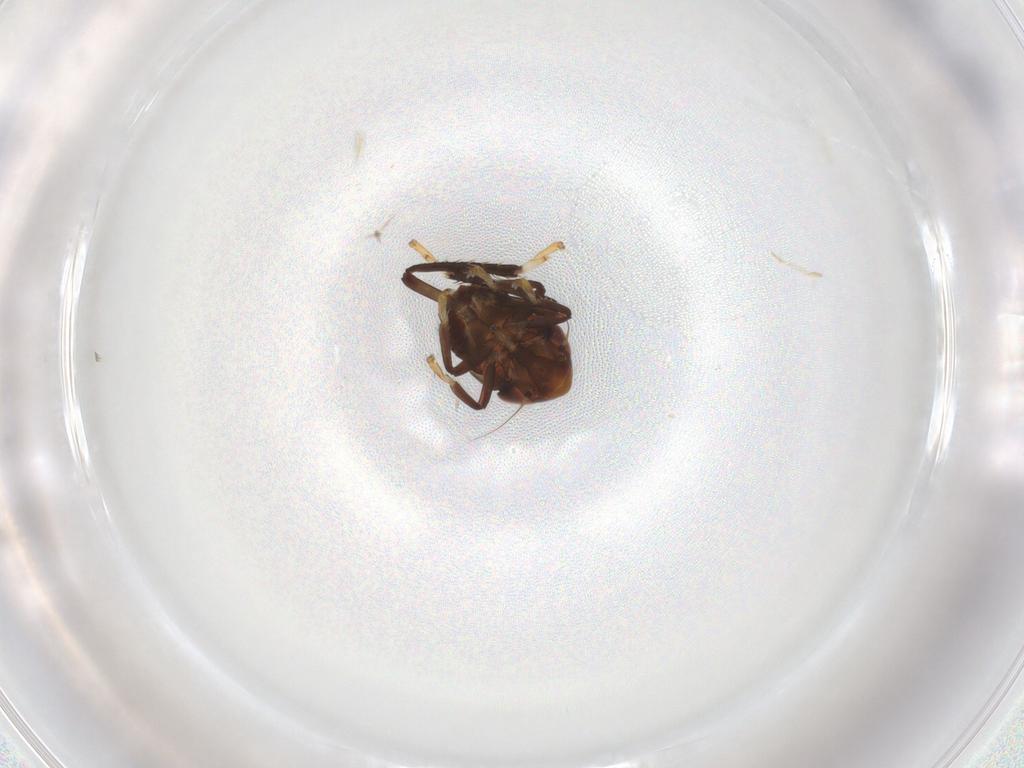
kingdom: Animalia
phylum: Arthropoda
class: Insecta
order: Hemiptera
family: Cicadellidae
